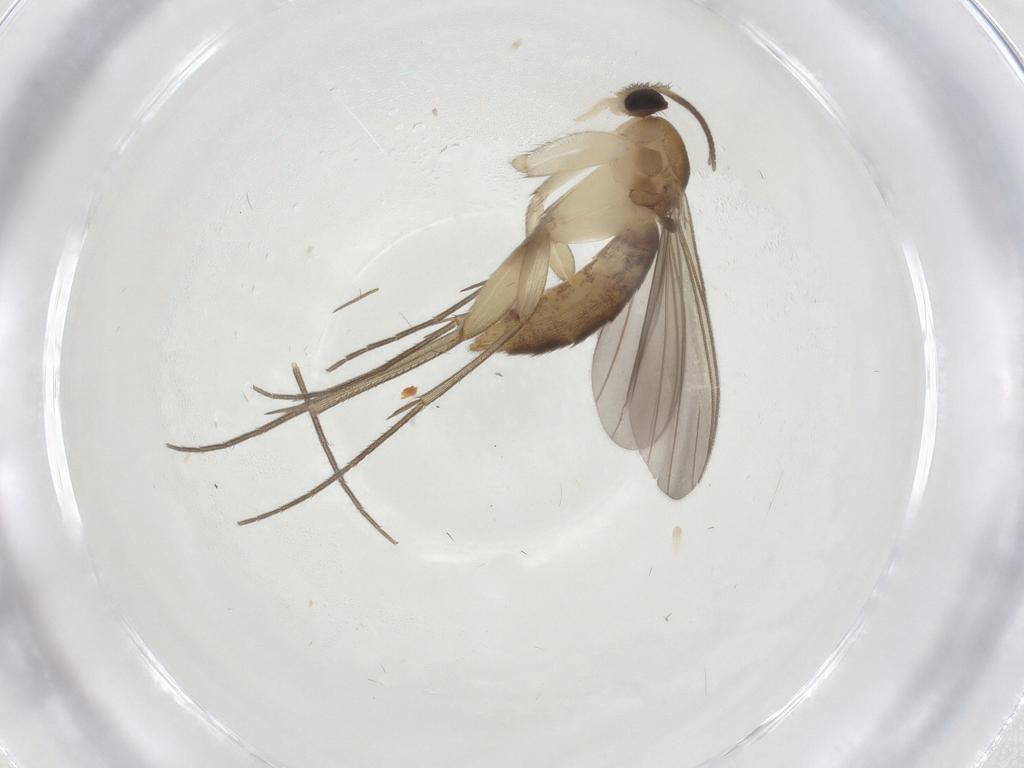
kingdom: Animalia
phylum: Arthropoda
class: Insecta
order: Diptera
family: Mycetophilidae
